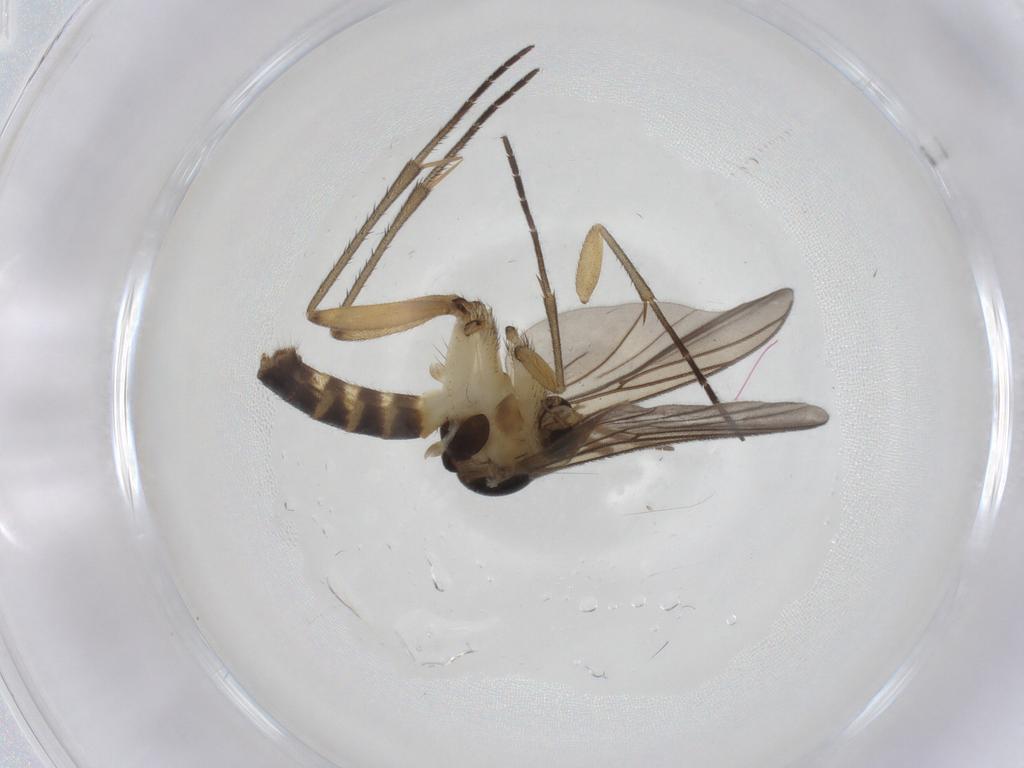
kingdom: Animalia
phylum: Arthropoda
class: Insecta
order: Diptera
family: Mycetophilidae
